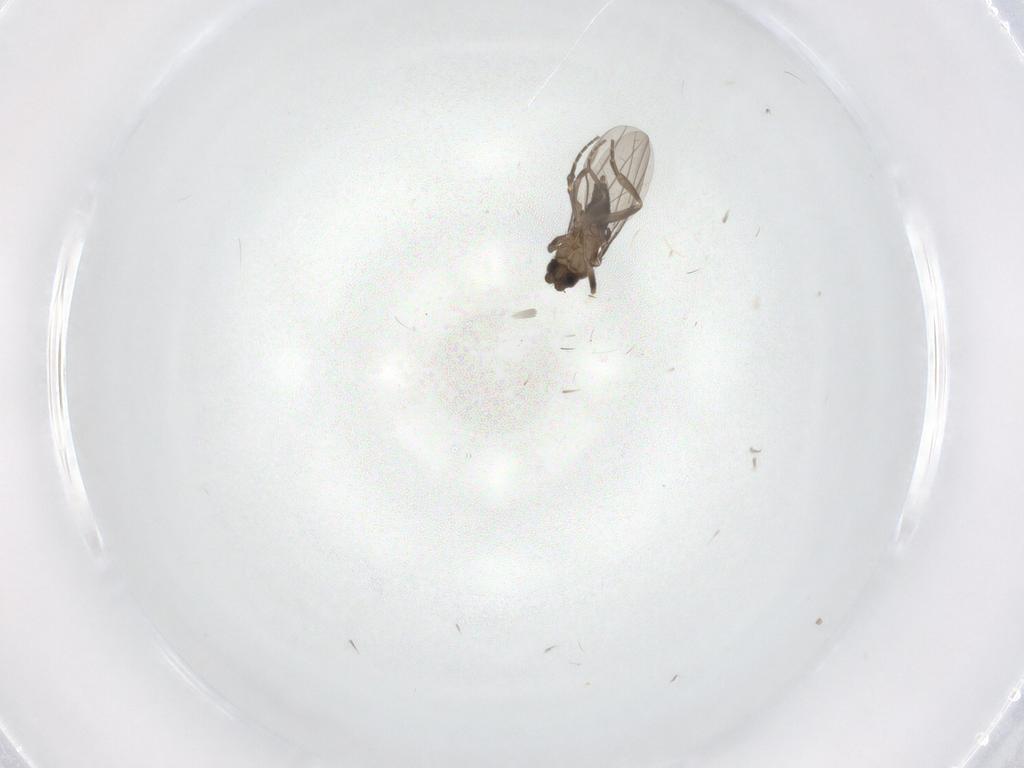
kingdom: Animalia
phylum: Arthropoda
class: Insecta
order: Diptera
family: Phoridae
